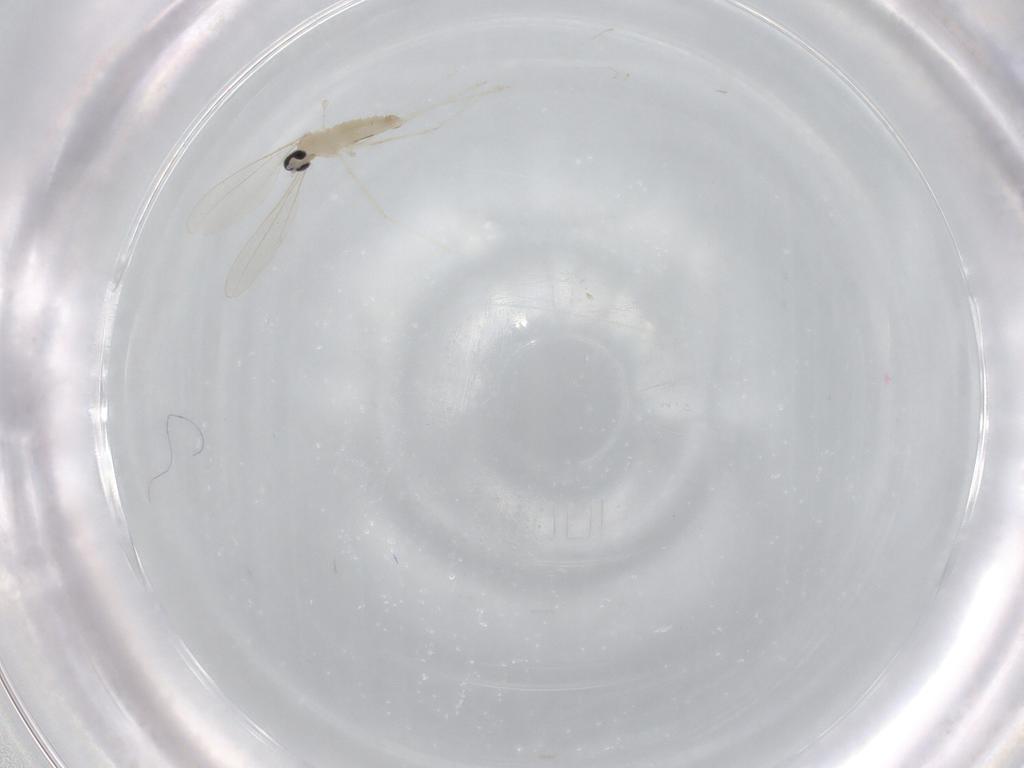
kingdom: Animalia
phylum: Arthropoda
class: Insecta
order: Diptera
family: Cecidomyiidae
